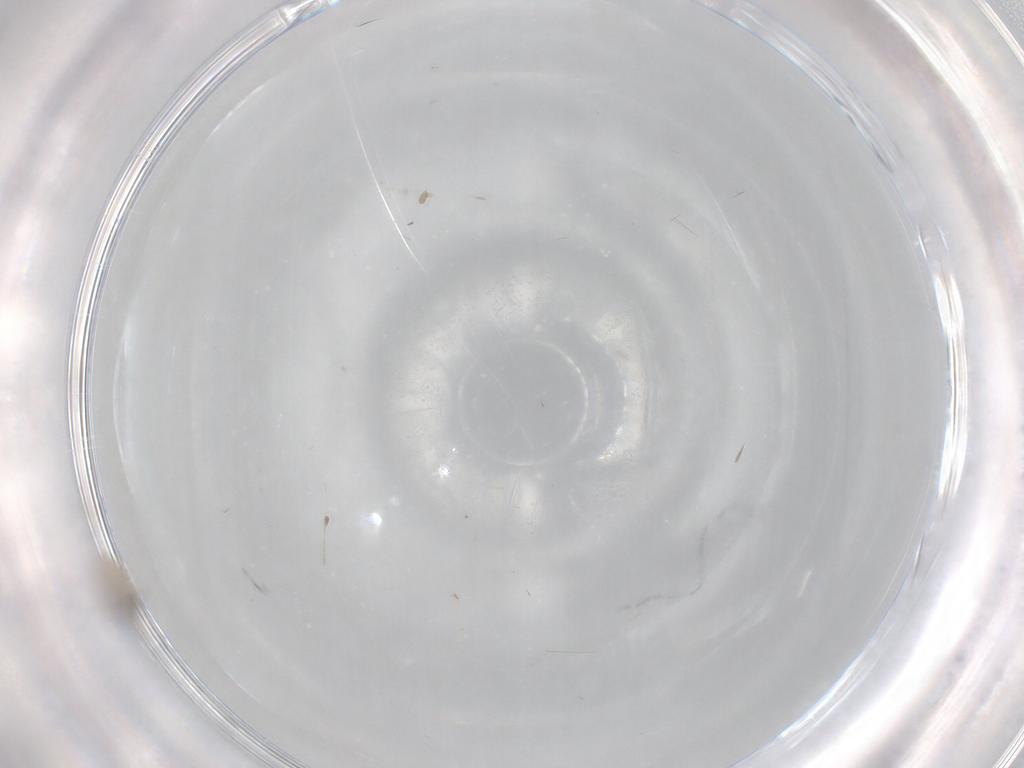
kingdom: Animalia
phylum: Arthropoda
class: Insecta
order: Diptera
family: Cecidomyiidae
